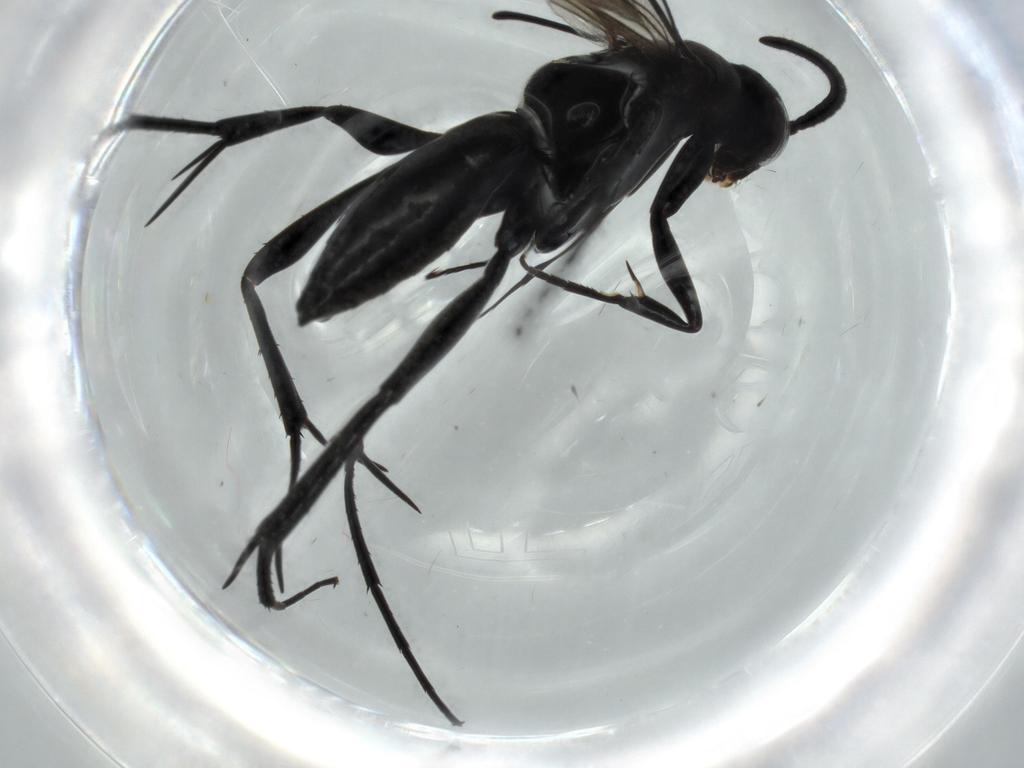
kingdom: Animalia
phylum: Arthropoda
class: Insecta
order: Hymenoptera
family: Pompilidae
